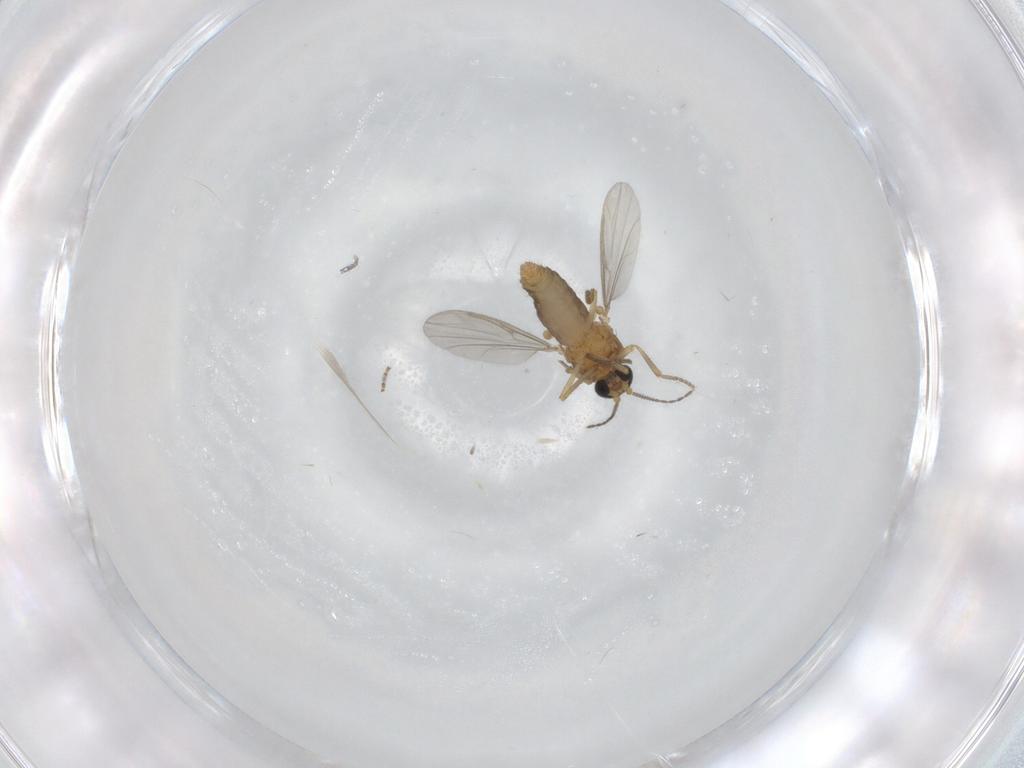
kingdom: Animalia
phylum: Arthropoda
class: Insecta
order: Diptera
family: Ceratopogonidae
